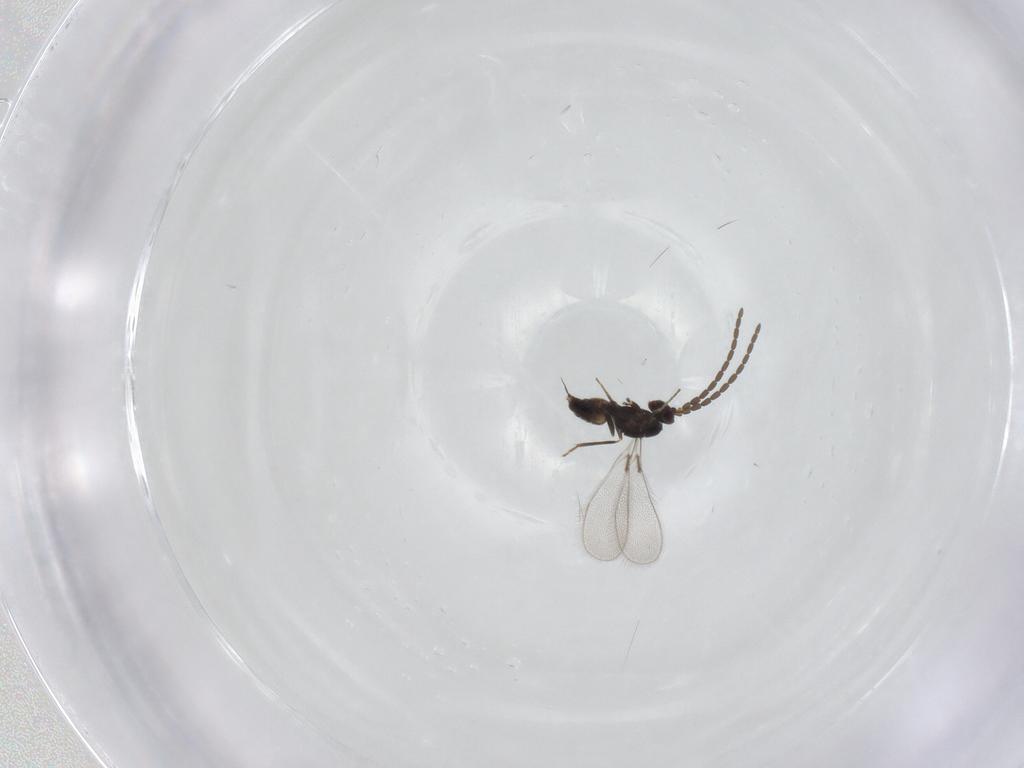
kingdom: Animalia
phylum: Arthropoda
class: Insecta
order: Hymenoptera
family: Mymaridae
